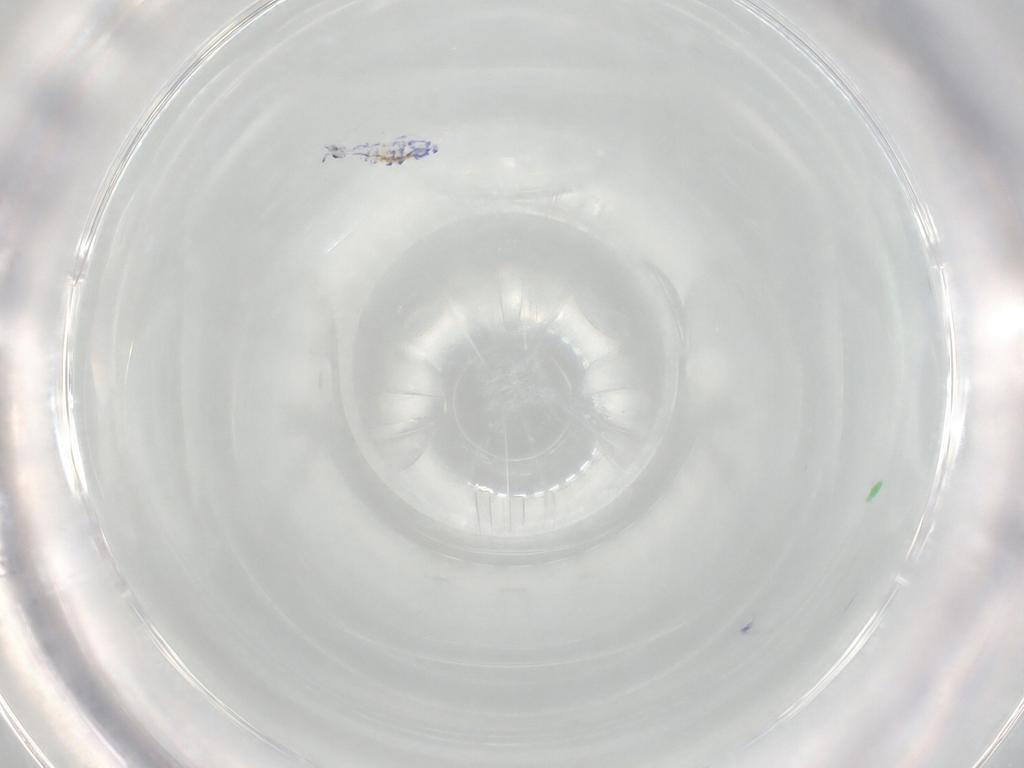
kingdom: Animalia
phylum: Arthropoda
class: Collembola
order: Entomobryomorpha
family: Entomobryidae
